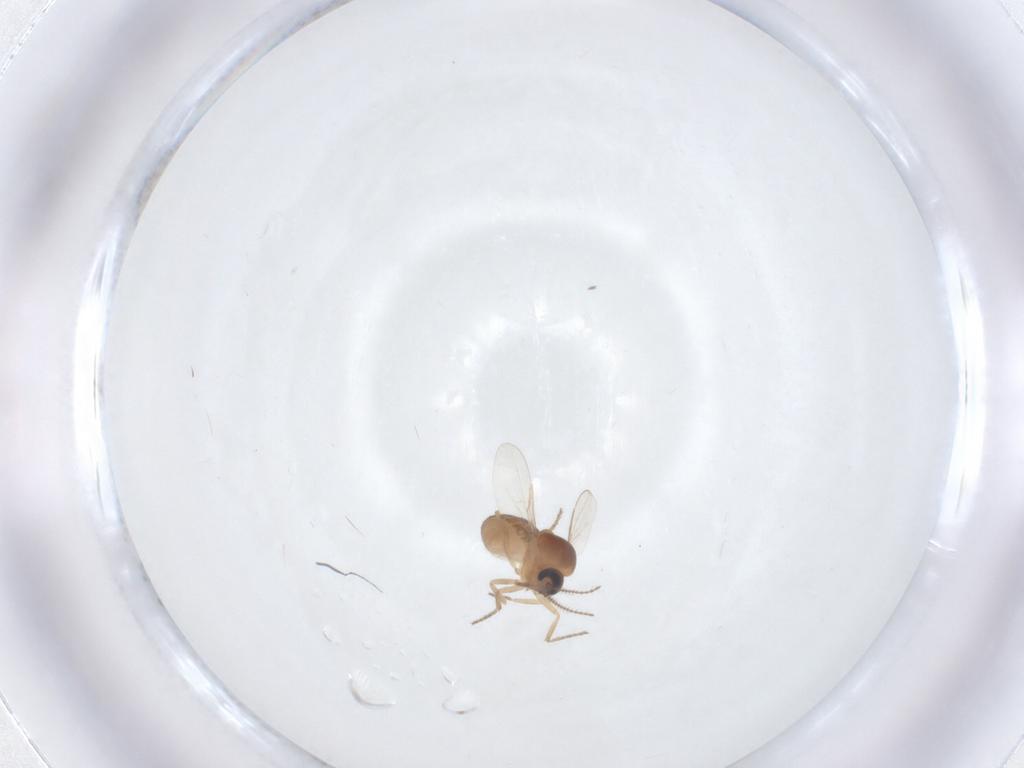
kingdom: Animalia
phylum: Arthropoda
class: Insecta
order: Diptera
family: Ceratopogonidae
